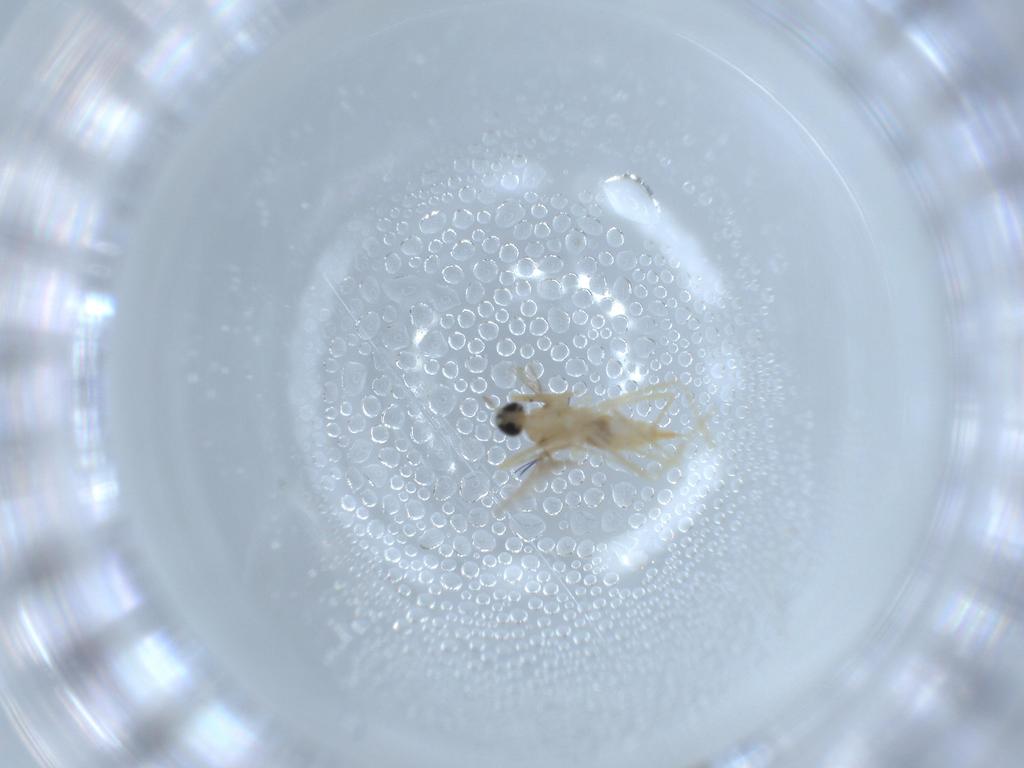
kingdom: Animalia
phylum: Arthropoda
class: Insecta
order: Diptera
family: Cecidomyiidae
